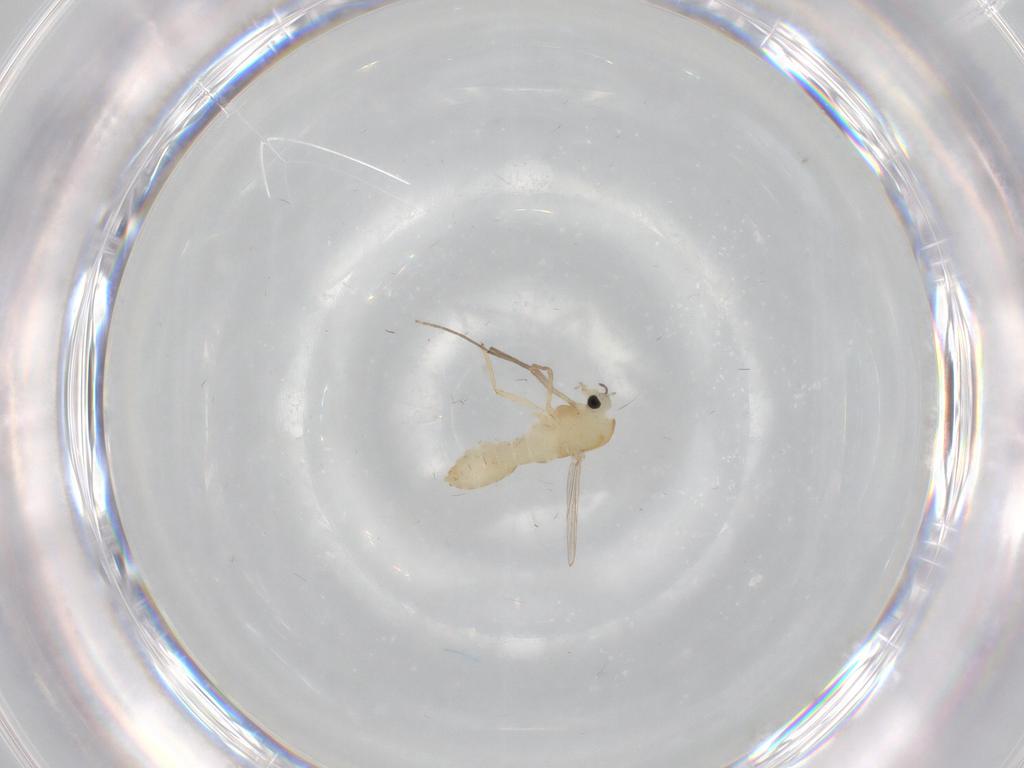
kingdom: Animalia
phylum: Arthropoda
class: Insecta
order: Diptera
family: Chironomidae
